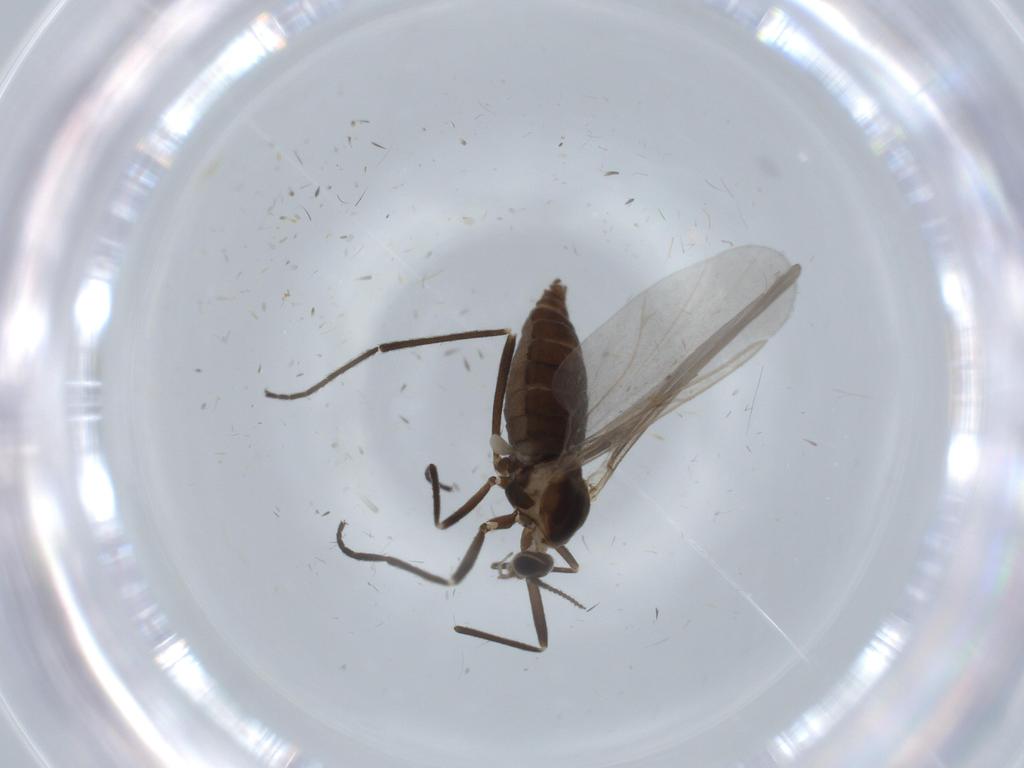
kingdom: Animalia
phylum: Arthropoda
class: Insecta
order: Diptera
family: Cecidomyiidae
